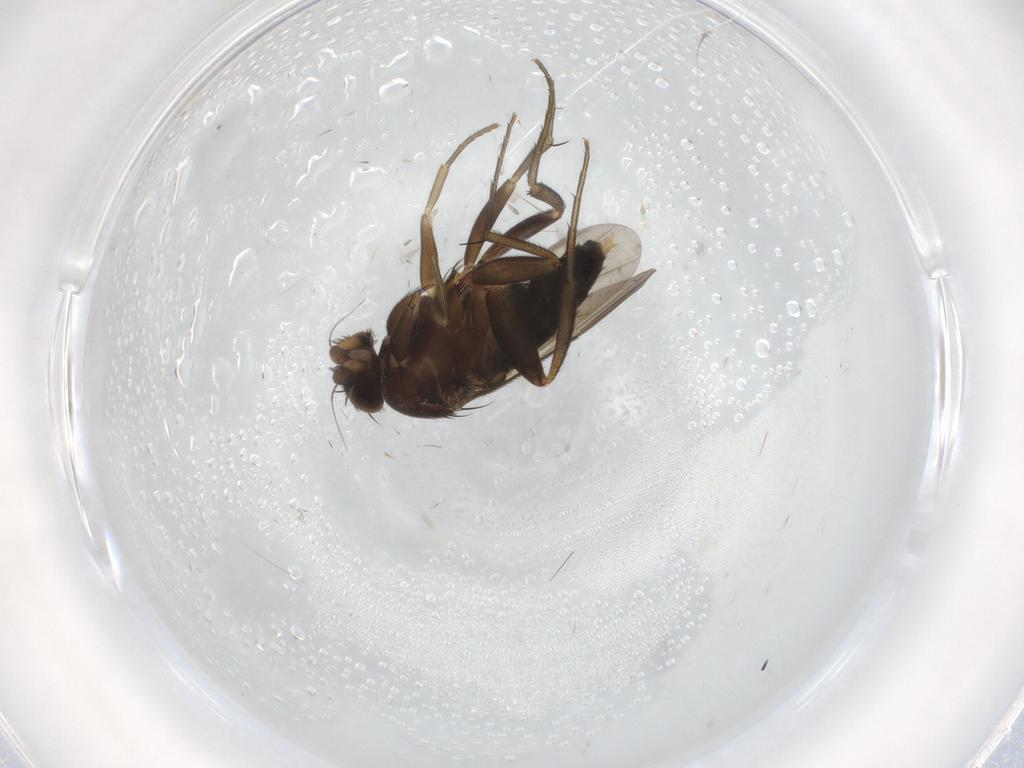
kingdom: Animalia
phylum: Arthropoda
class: Insecta
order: Diptera
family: Phoridae
